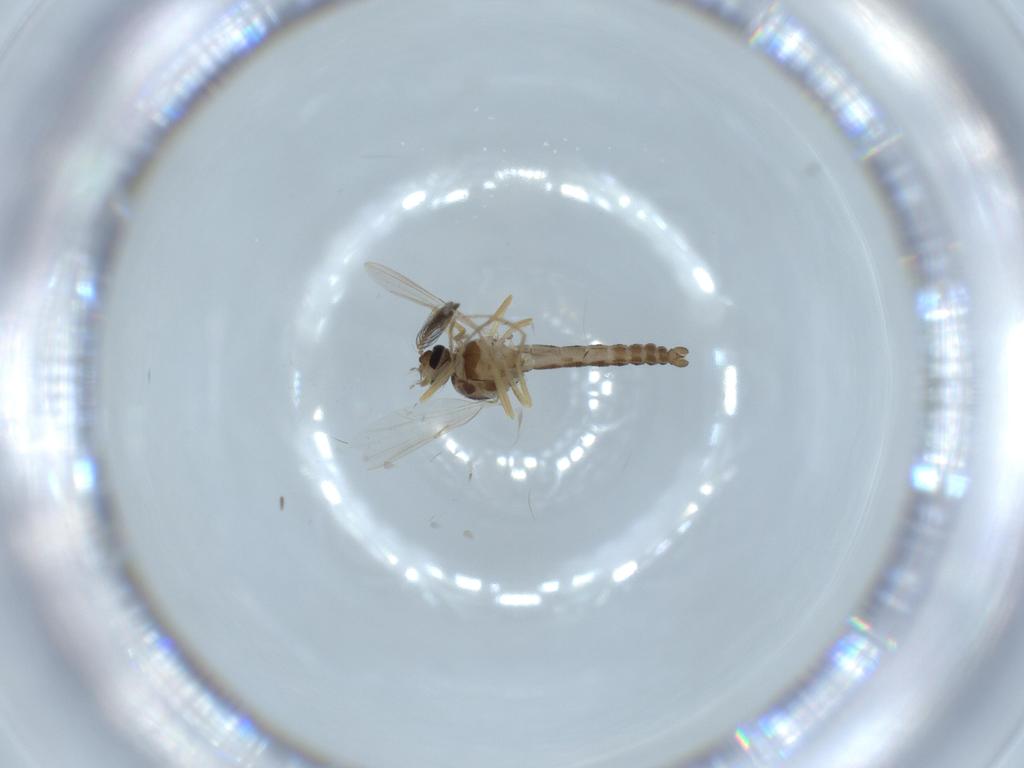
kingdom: Animalia
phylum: Arthropoda
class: Insecta
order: Diptera
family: Ceratopogonidae
